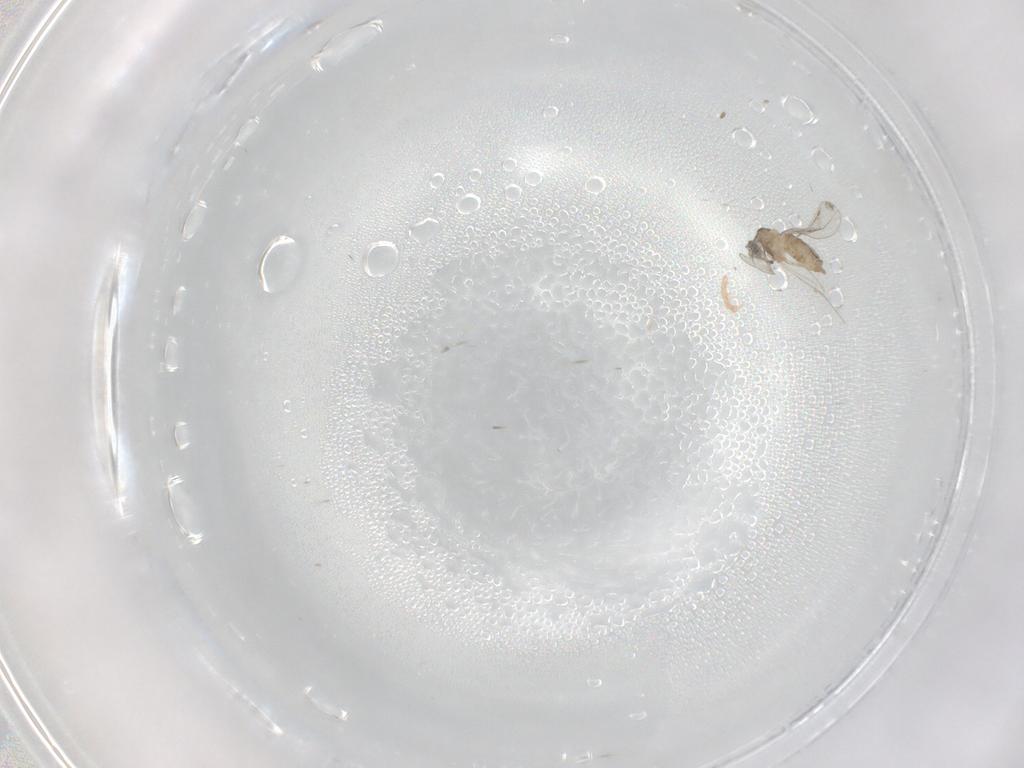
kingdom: Animalia
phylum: Arthropoda
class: Insecta
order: Diptera
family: Cecidomyiidae
